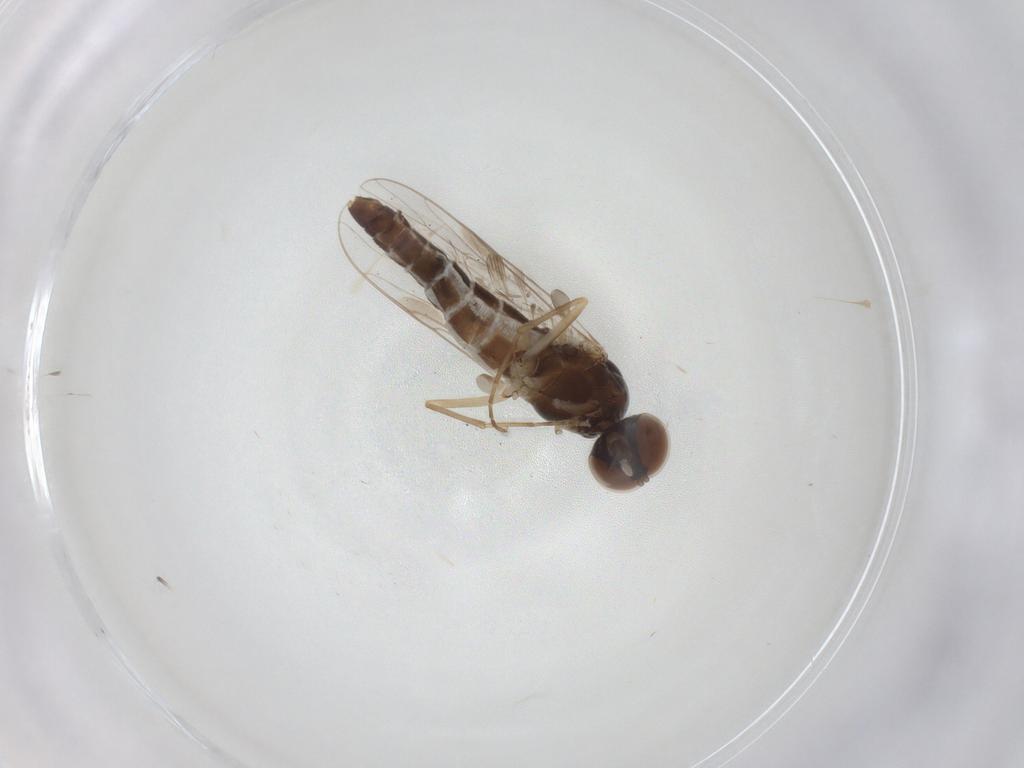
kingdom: Animalia
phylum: Arthropoda
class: Insecta
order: Diptera
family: Scenopinidae
